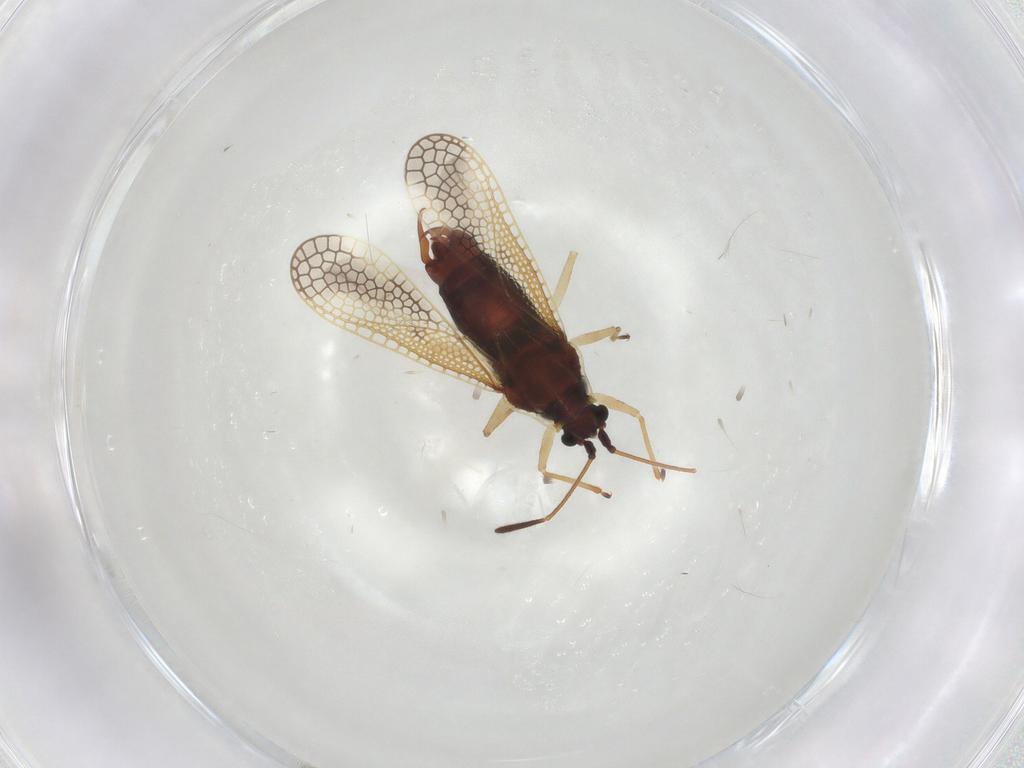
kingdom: Animalia
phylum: Arthropoda
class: Insecta
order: Hemiptera
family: Tingidae
